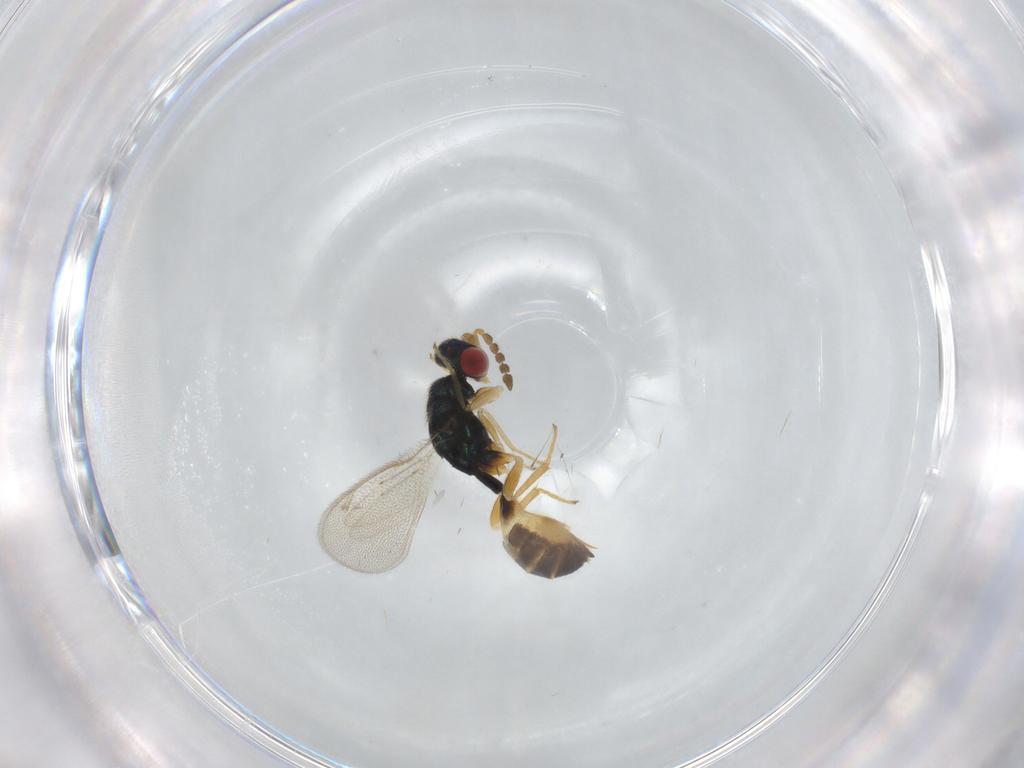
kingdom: Animalia
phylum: Arthropoda
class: Insecta
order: Hymenoptera
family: Eulophidae
